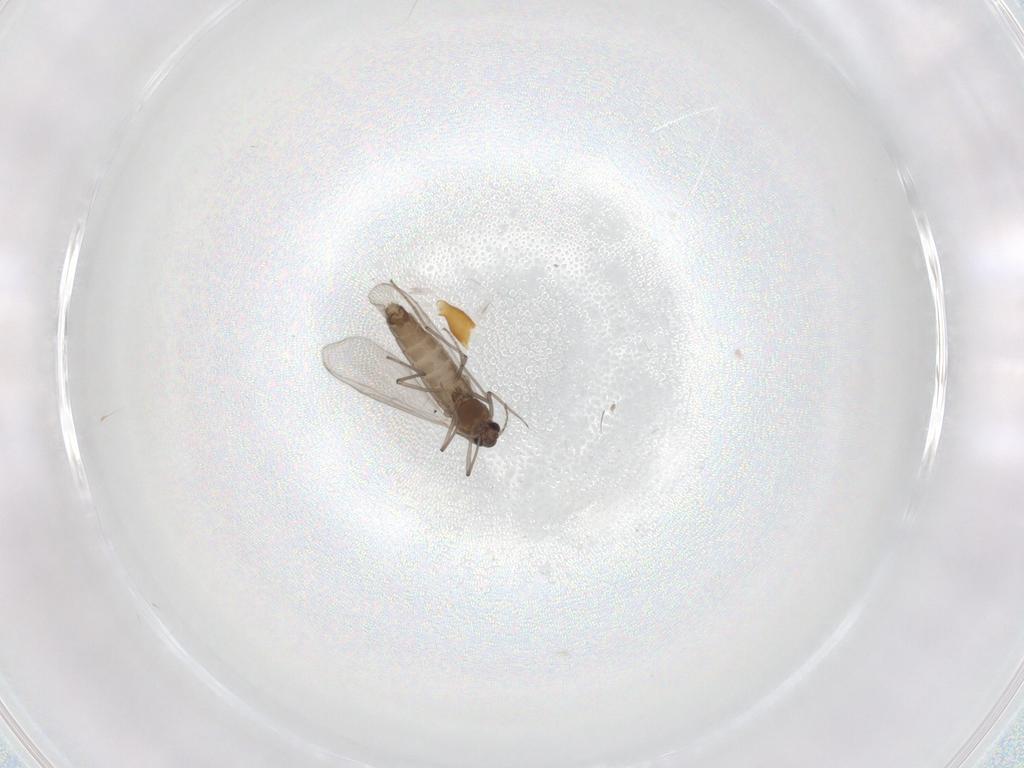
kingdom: Animalia
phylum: Arthropoda
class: Insecta
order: Diptera
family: Chironomidae
